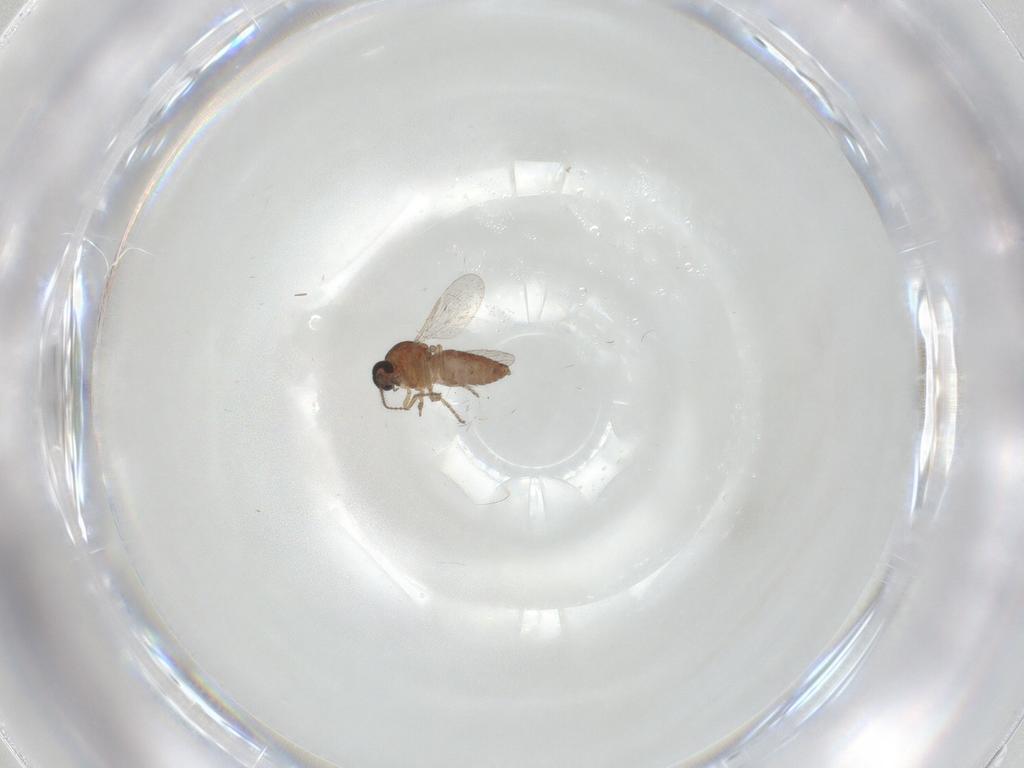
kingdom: Animalia
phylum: Arthropoda
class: Insecta
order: Diptera
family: Ceratopogonidae
